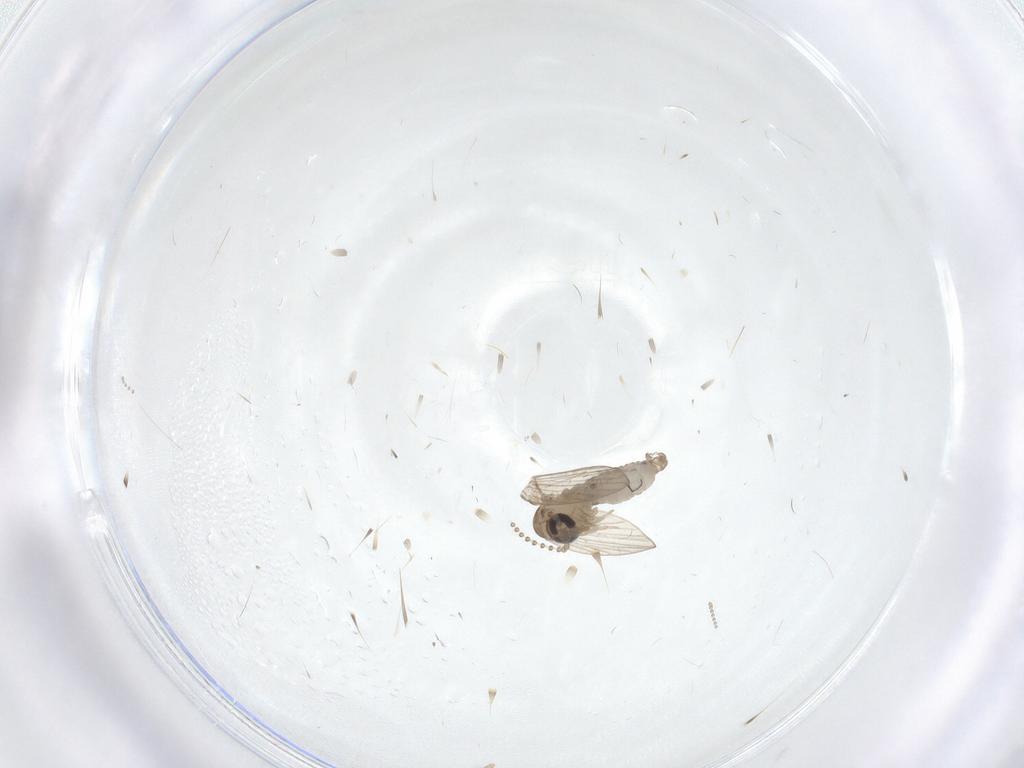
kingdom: Animalia
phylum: Arthropoda
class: Insecta
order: Diptera
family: Psychodidae
